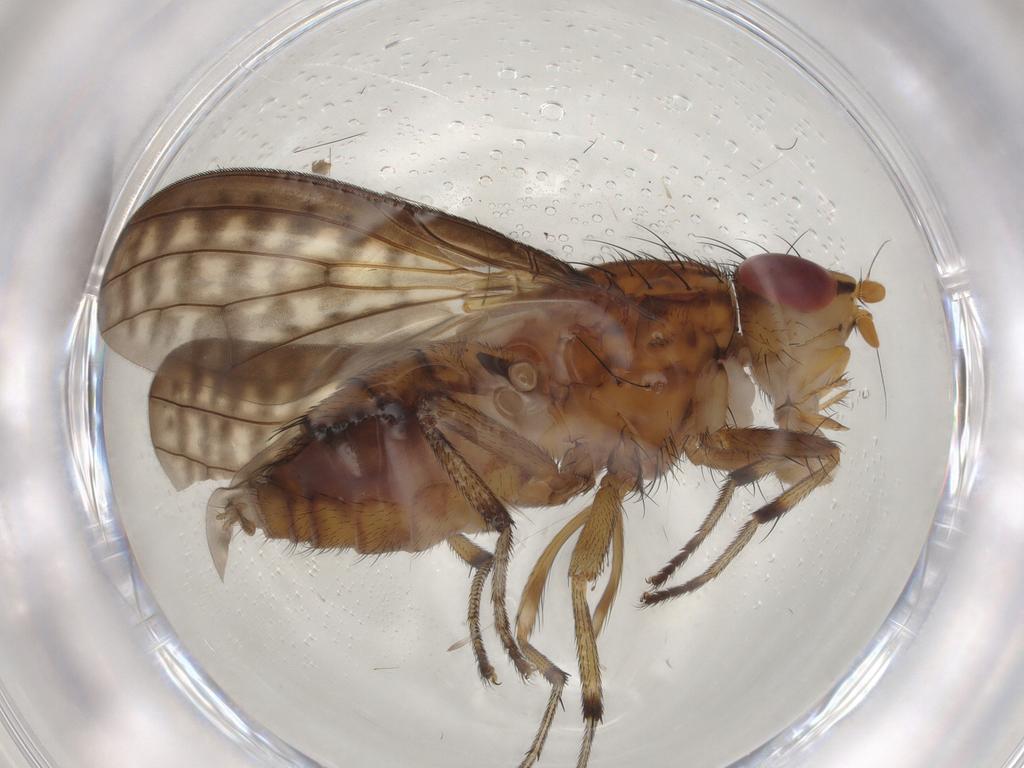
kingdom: Animalia
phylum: Arthropoda
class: Insecta
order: Diptera
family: Lauxaniidae
